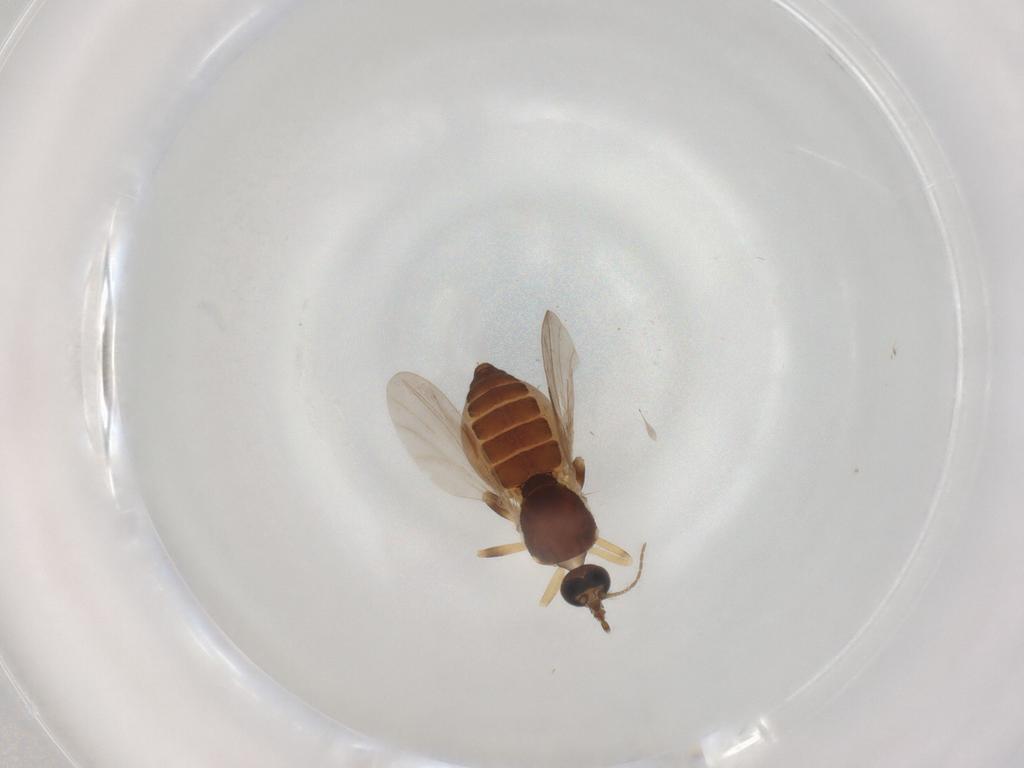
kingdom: Animalia
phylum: Arthropoda
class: Insecta
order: Diptera
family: Ceratopogonidae
